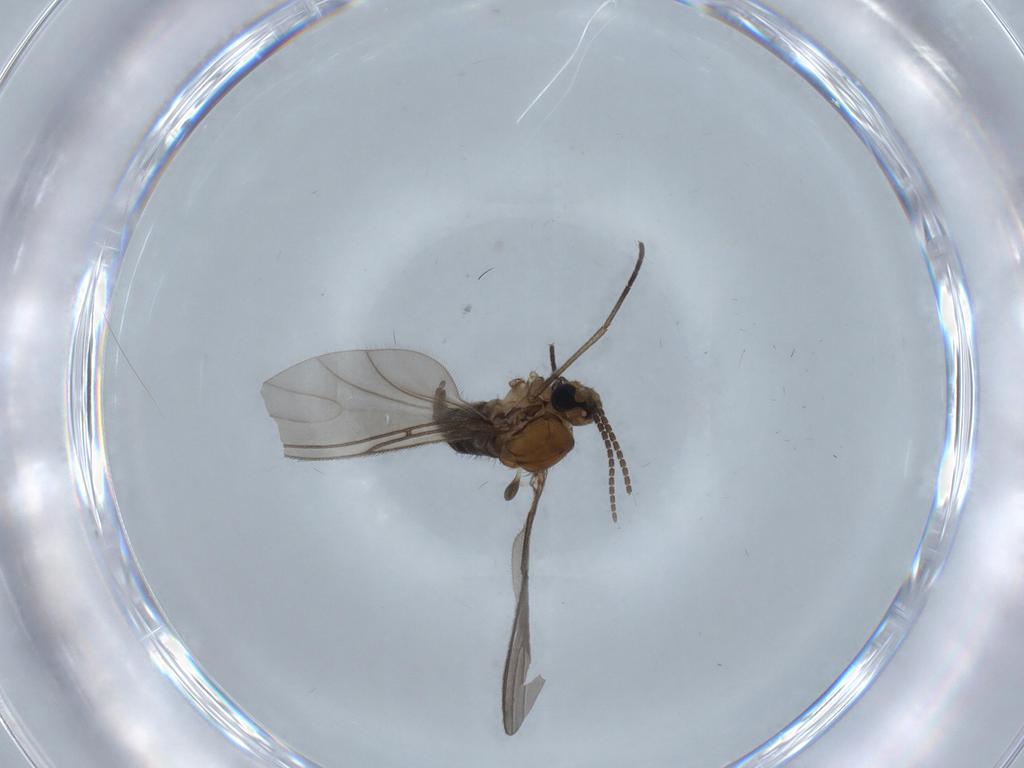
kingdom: Animalia
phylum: Arthropoda
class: Insecta
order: Diptera
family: Sciaridae
